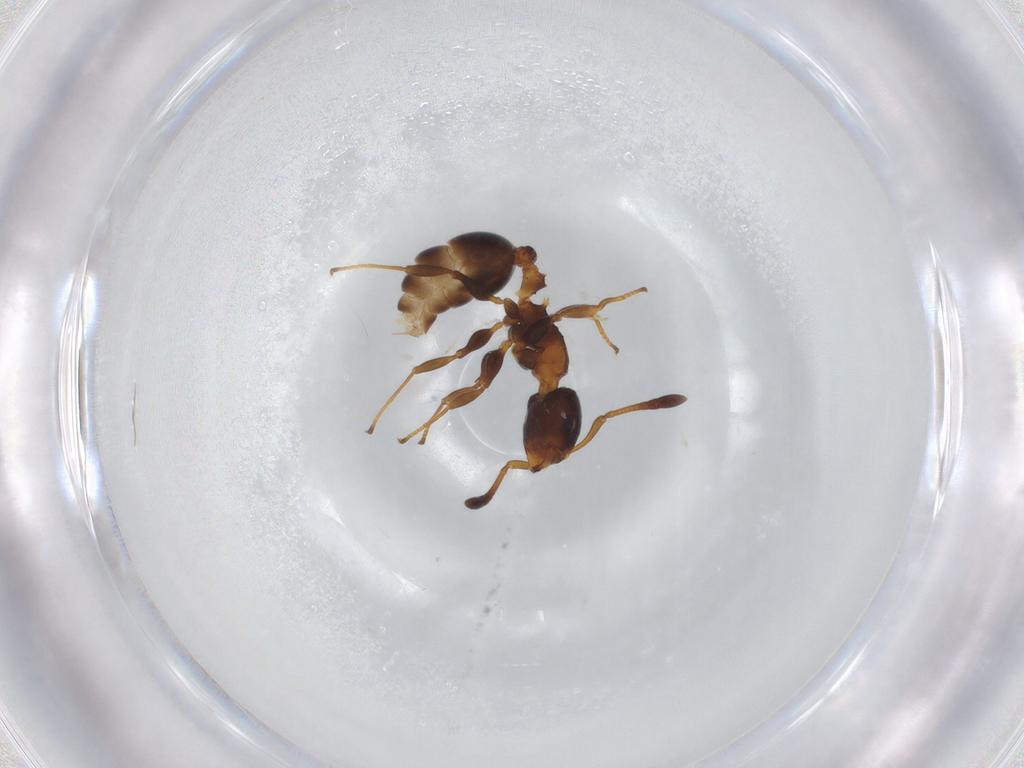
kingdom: Animalia
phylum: Arthropoda
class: Insecta
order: Hymenoptera
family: Formicidae
